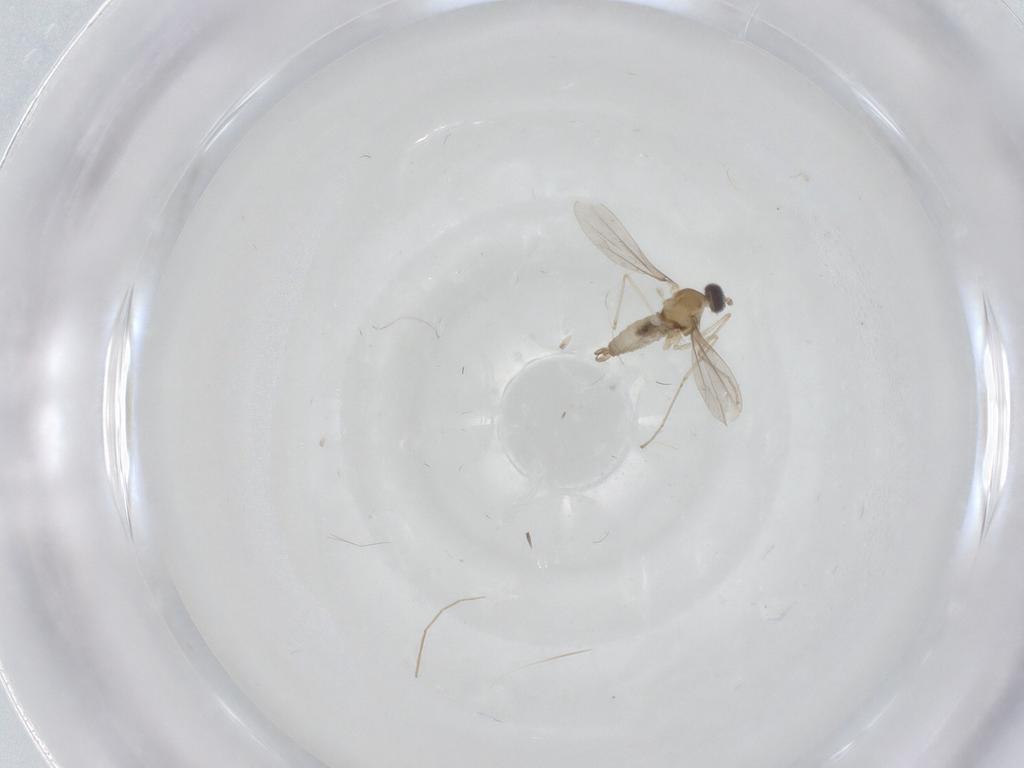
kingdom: Animalia
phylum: Arthropoda
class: Insecta
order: Diptera
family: Cecidomyiidae
